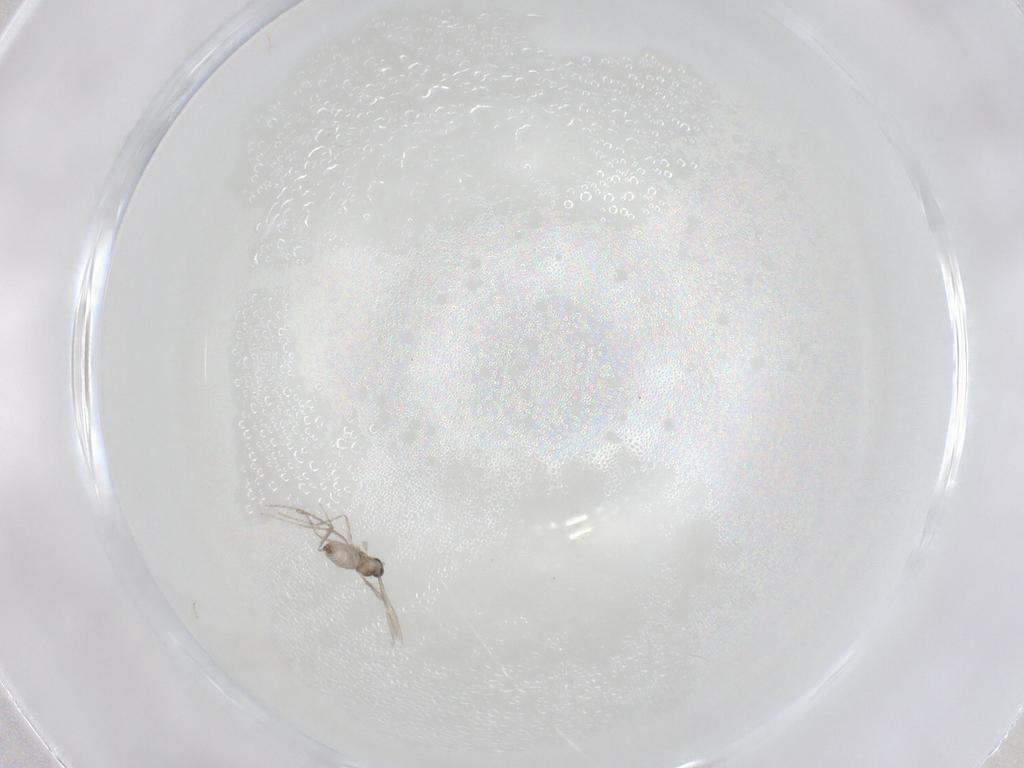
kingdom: Animalia
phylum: Arthropoda
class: Insecta
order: Diptera
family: Cecidomyiidae
